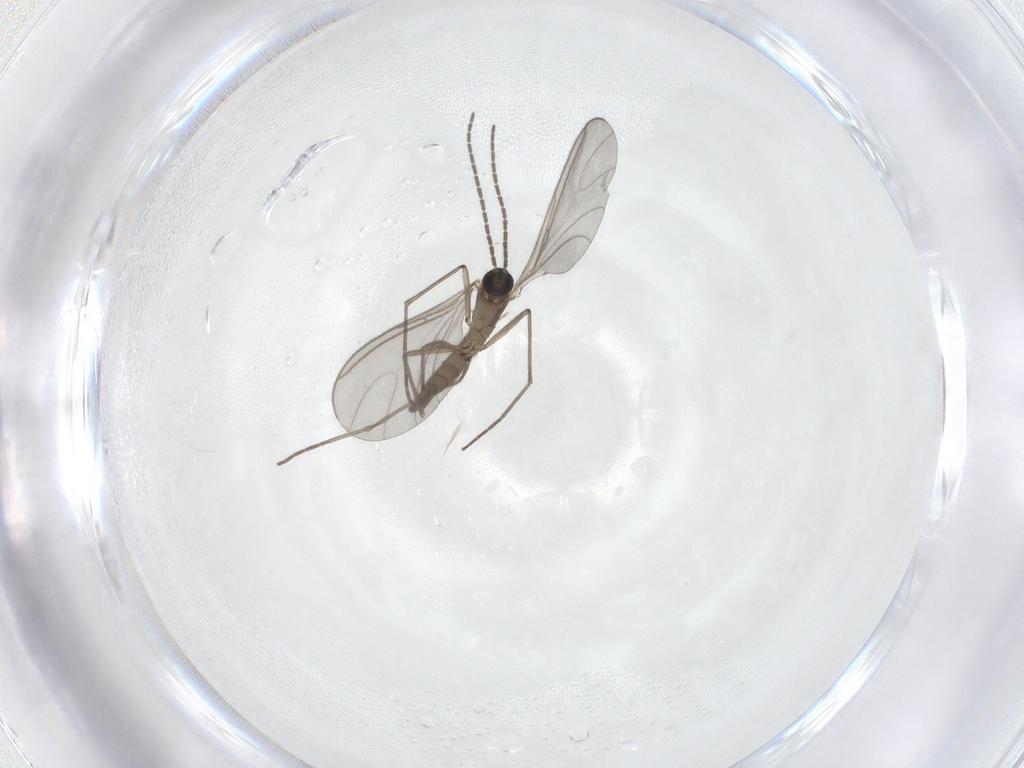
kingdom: Animalia
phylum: Arthropoda
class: Insecta
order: Diptera
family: Sciaridae
